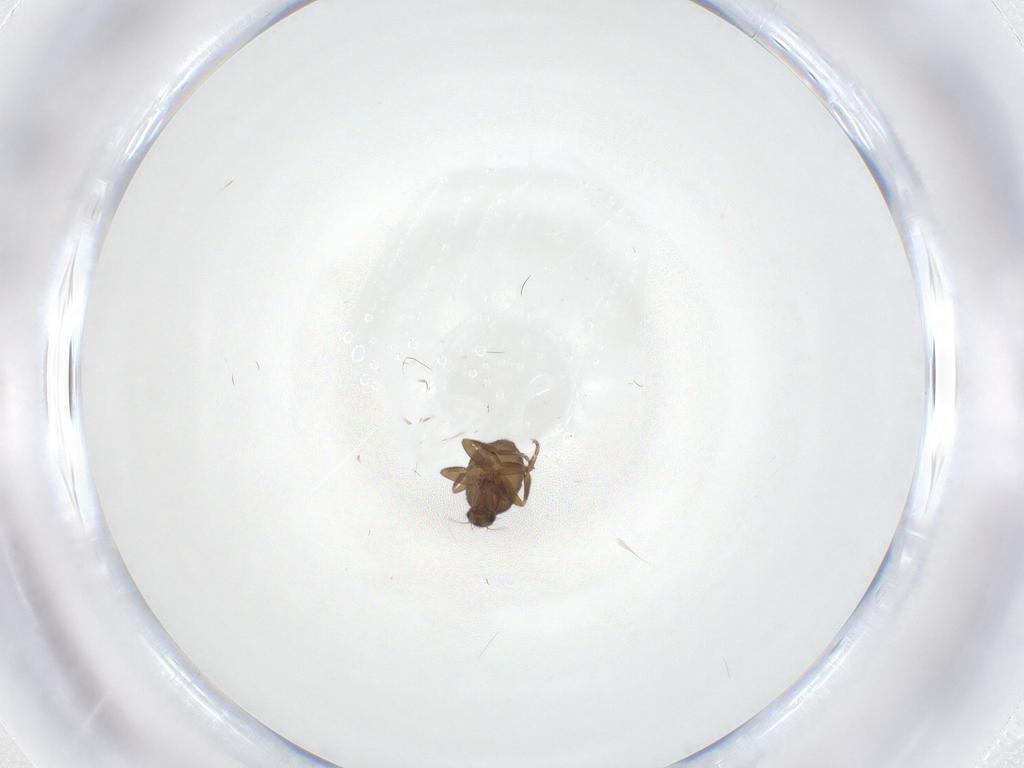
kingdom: Animalia
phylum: Arthropoda
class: Insecta
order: Diptera
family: Phoridae
